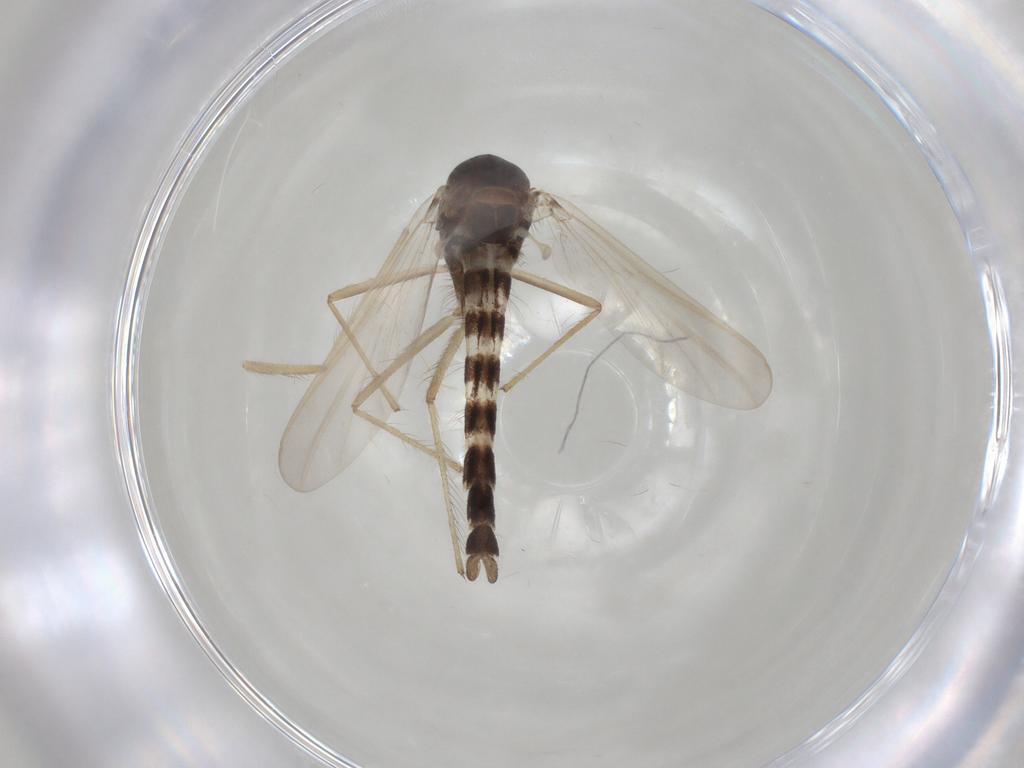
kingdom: Animalia
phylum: Arthropoda
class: Insecta
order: Diptera
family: Chironomidae
